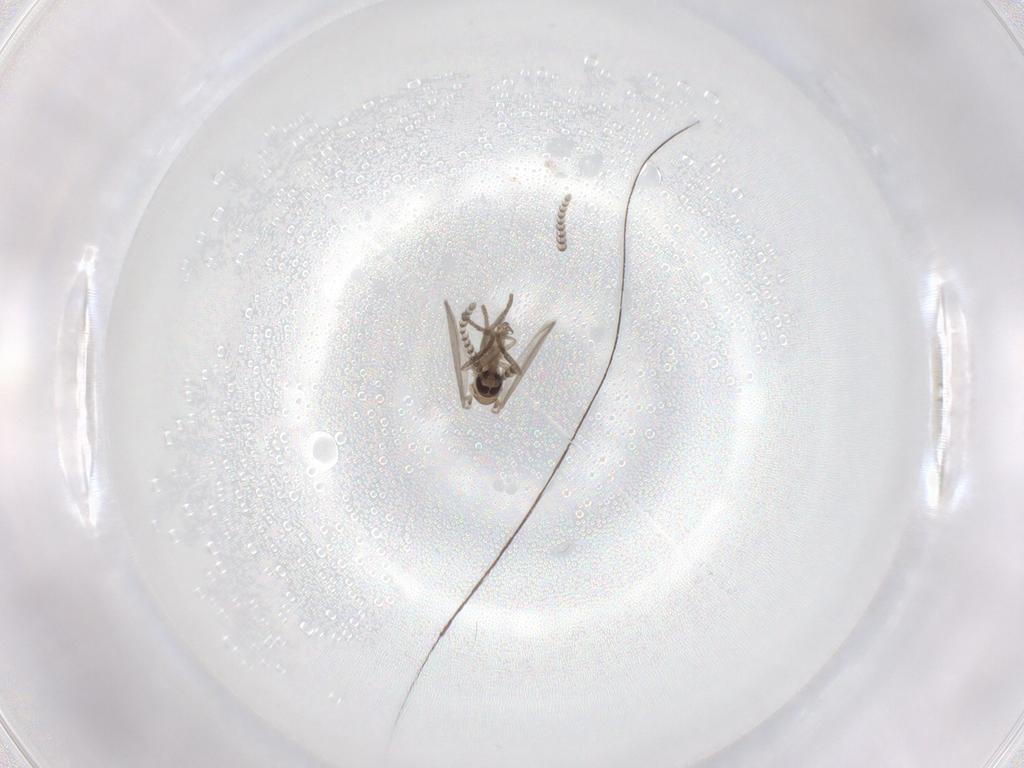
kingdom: Animalia
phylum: Arthropoda
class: Insecta
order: Diptera
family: Psychodidae
